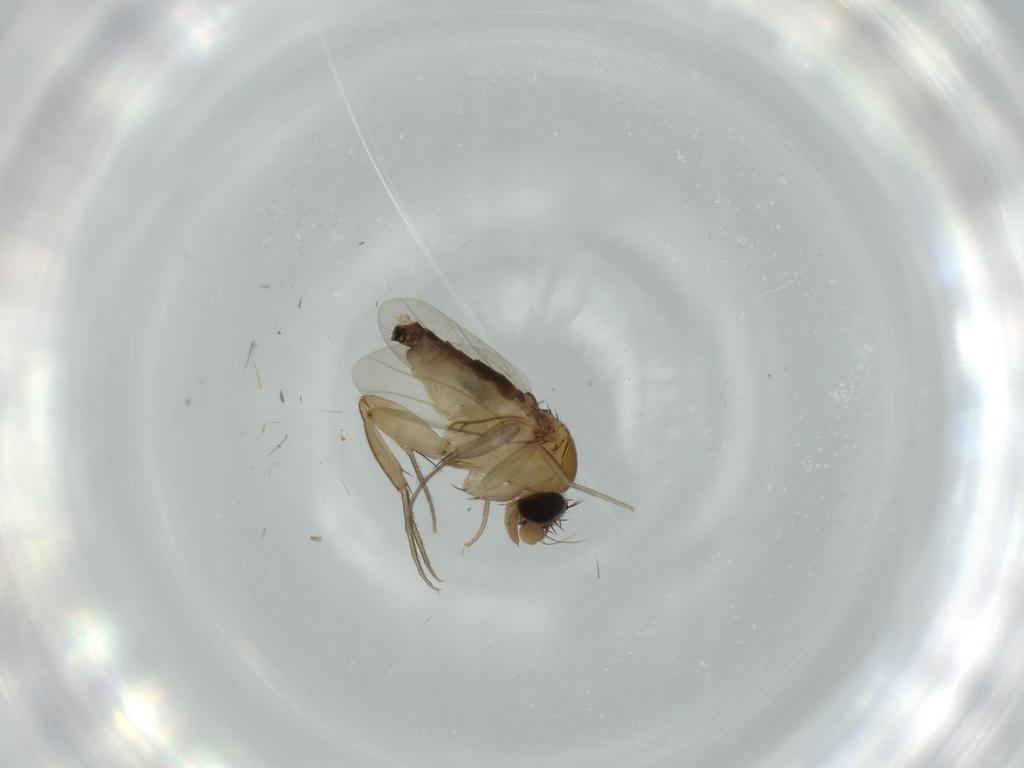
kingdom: Animalia
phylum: Arthropoda
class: Insecta
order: Diptera
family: Phoridae
